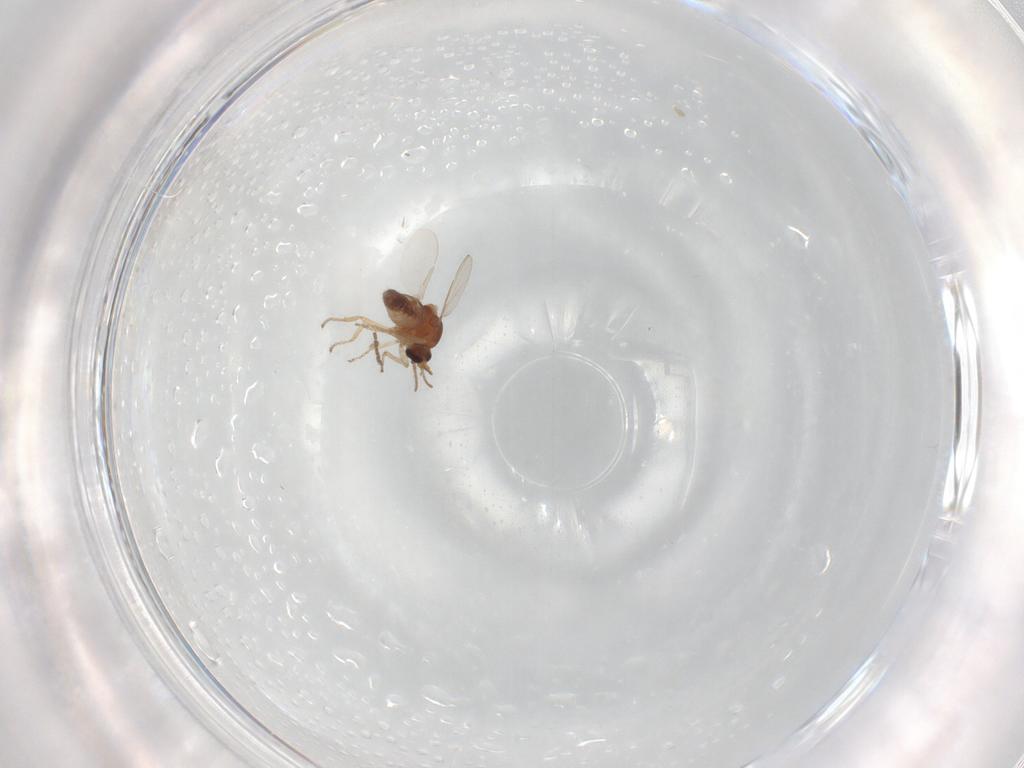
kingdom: Animalia
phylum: Arthropoda
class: Insecta
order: Diptera
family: Ceratopogonidae
